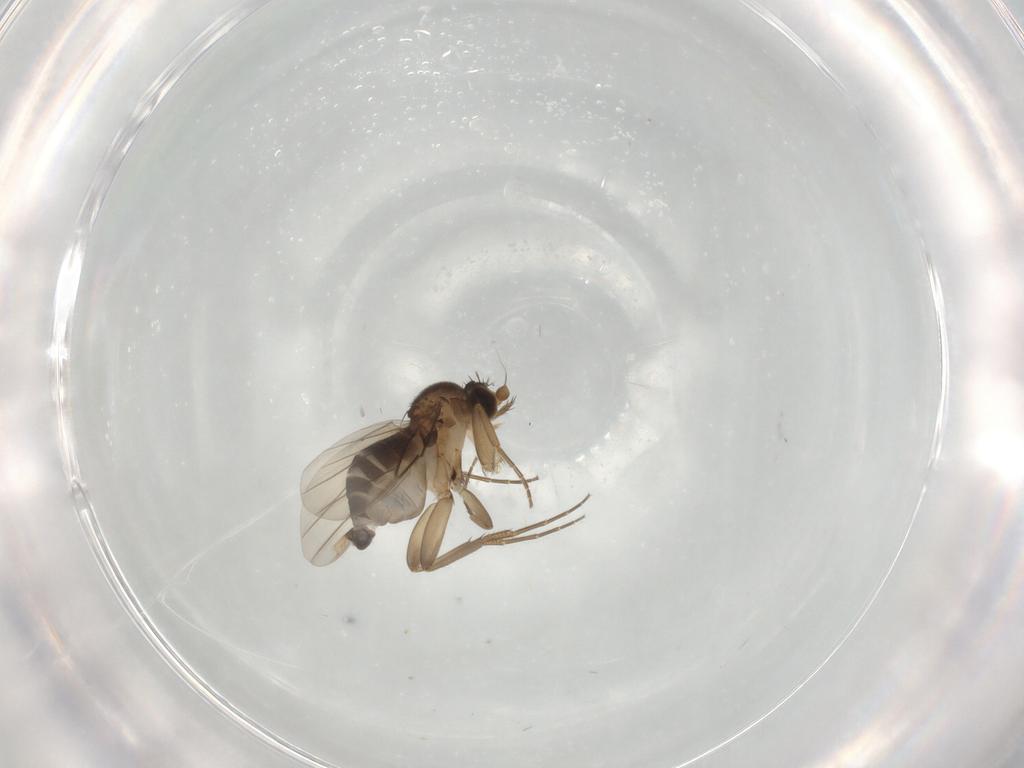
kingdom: Animalia
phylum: Arthropoda
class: Insecta
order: Diptera
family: Phoridae
